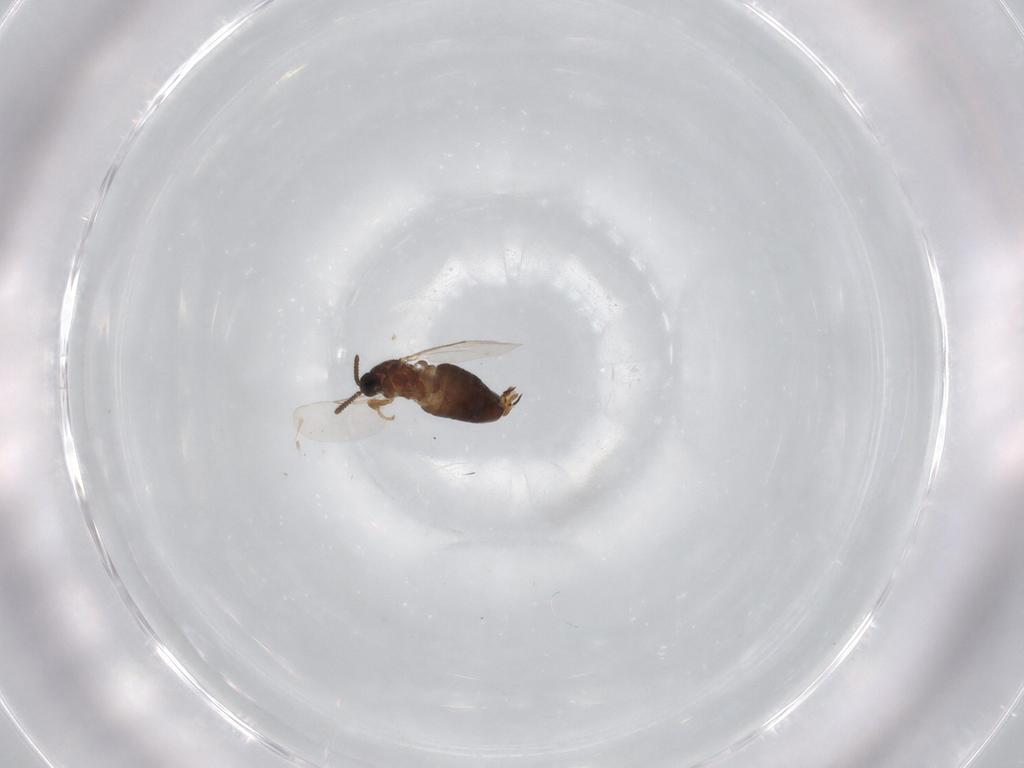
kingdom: Animalia
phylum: Arthropoda
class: Insecta
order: Diptera
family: Scatopsidae
